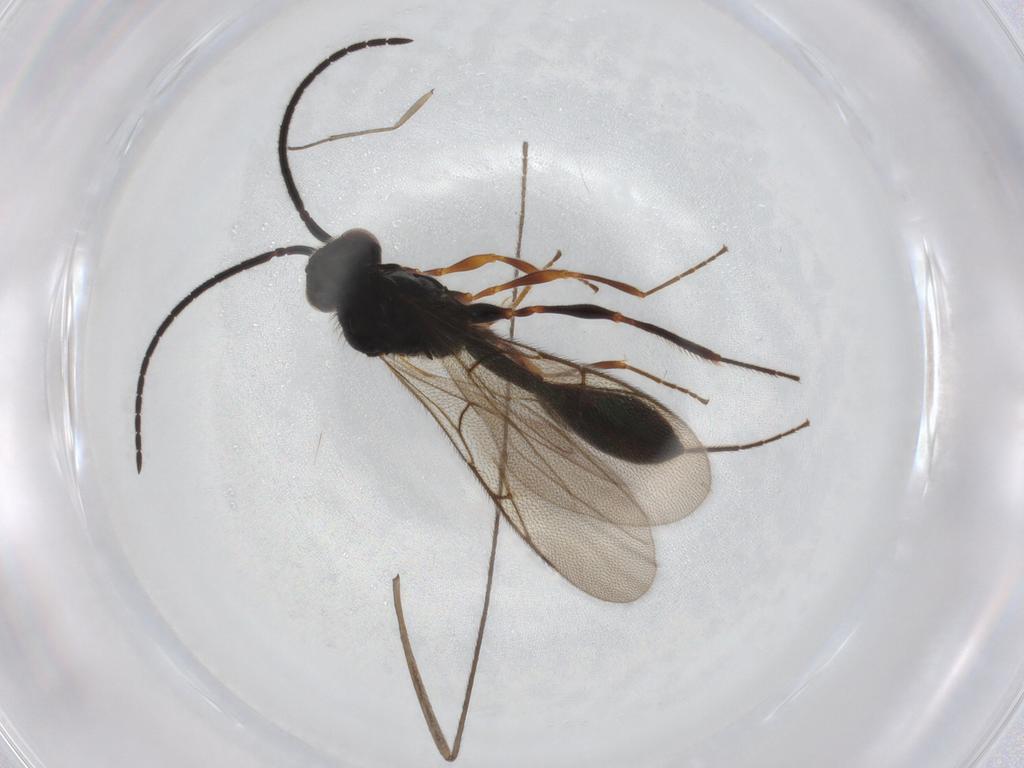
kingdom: Animalia
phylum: Arthropoda
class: Insecta
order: Hymenoptera
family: Diapriidae
